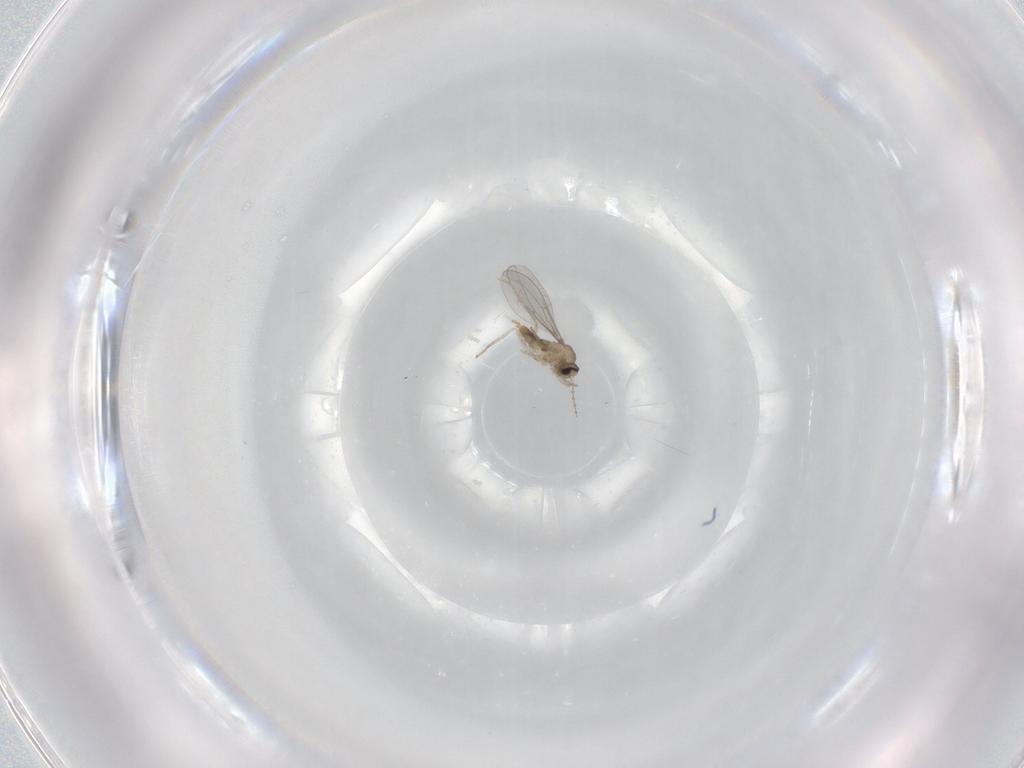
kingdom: Animalia
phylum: Arthropoda
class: Insecta
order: Diptera
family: Cecidomyiidae
